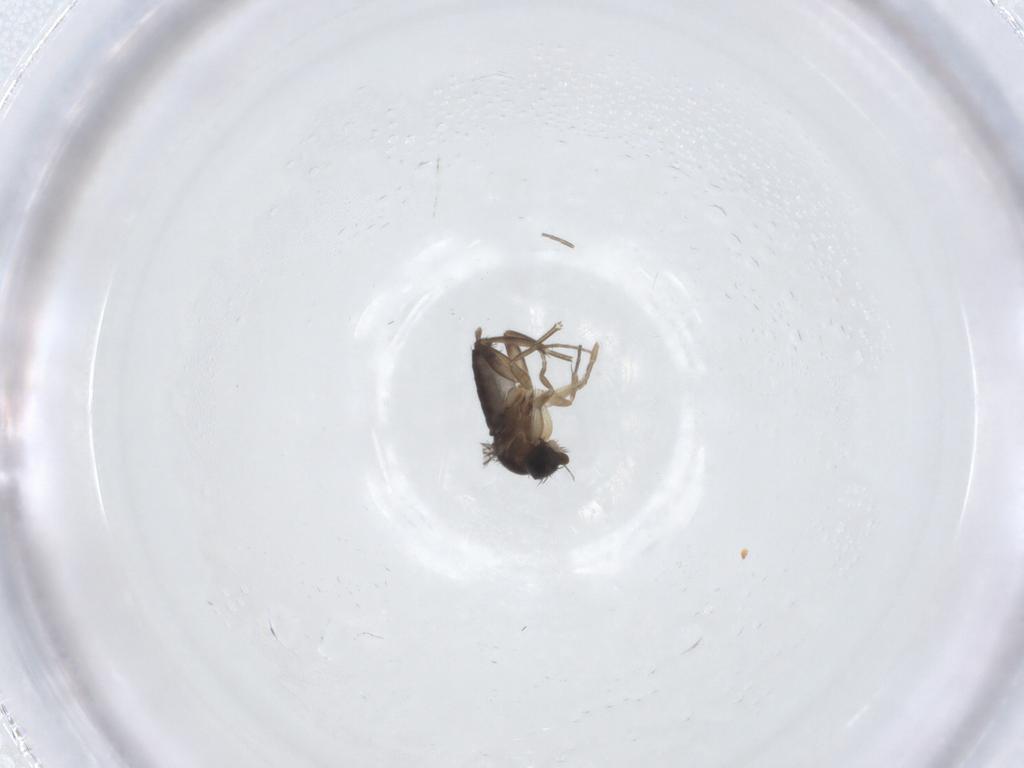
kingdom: Animalia
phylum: Arthropoda
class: Insecta
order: Diptera
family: Phoridae
